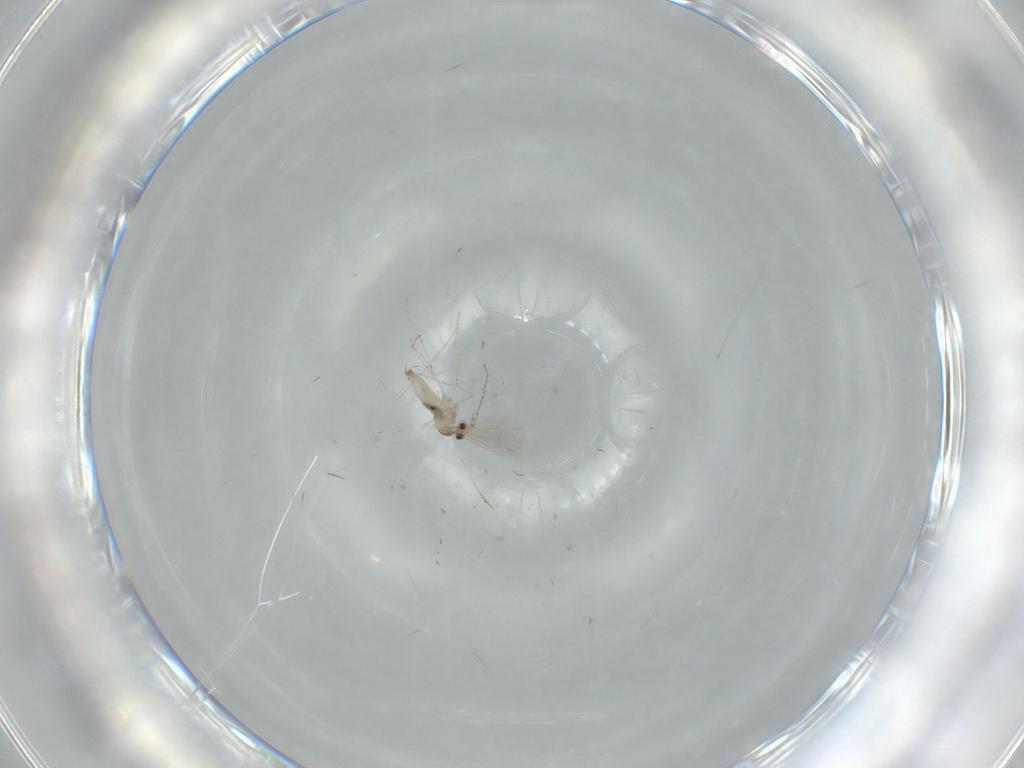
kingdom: Animalia
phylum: Arthropoda
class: Insecta
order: Diptera
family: Cecidomyiidae
